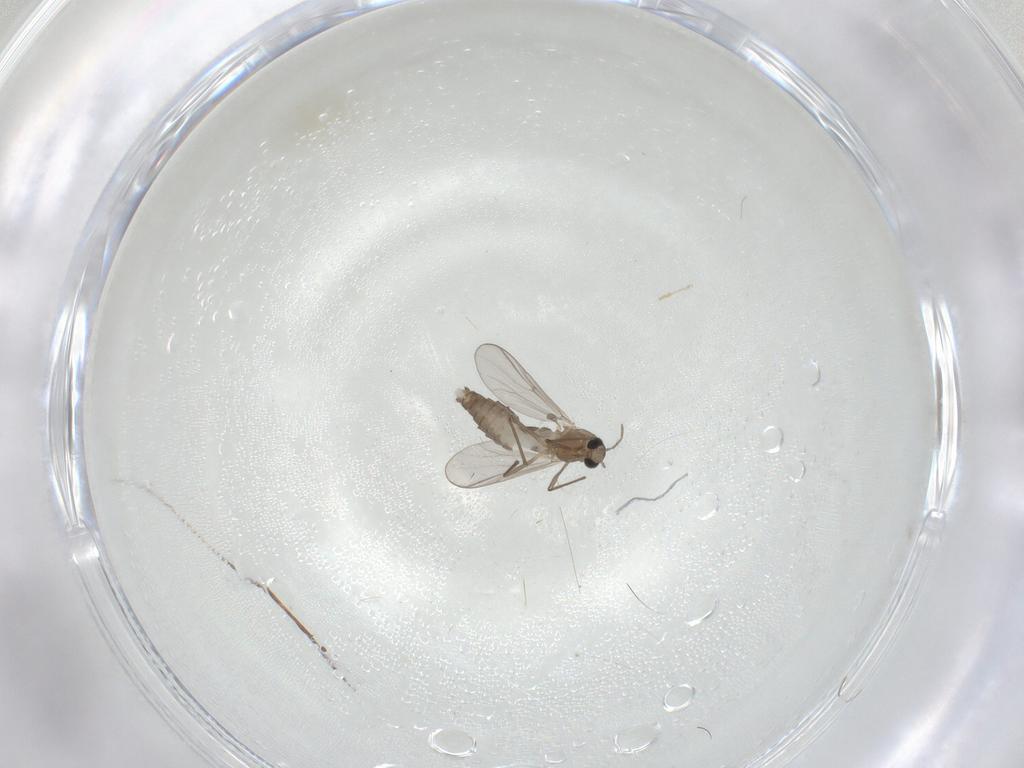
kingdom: Animalia
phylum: Arthropoda
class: Insecta
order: Diptera
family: Chironomidae
